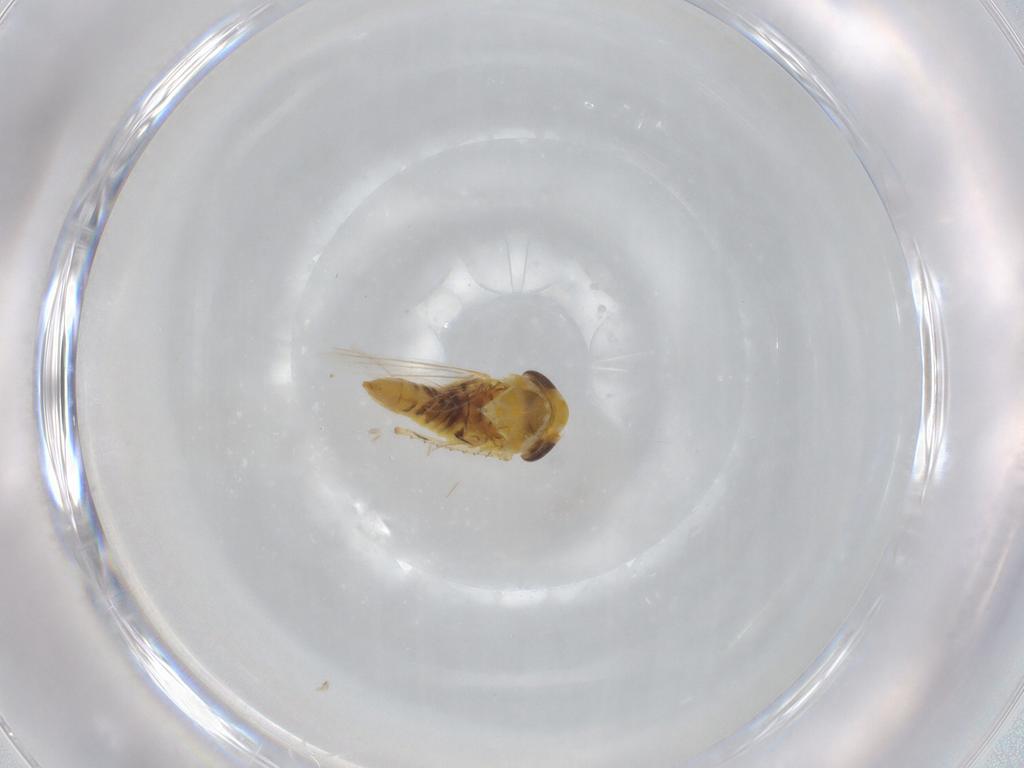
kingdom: Animalia
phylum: Arthropoda
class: Insecta
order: Hemiptera
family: Cicadellidae
